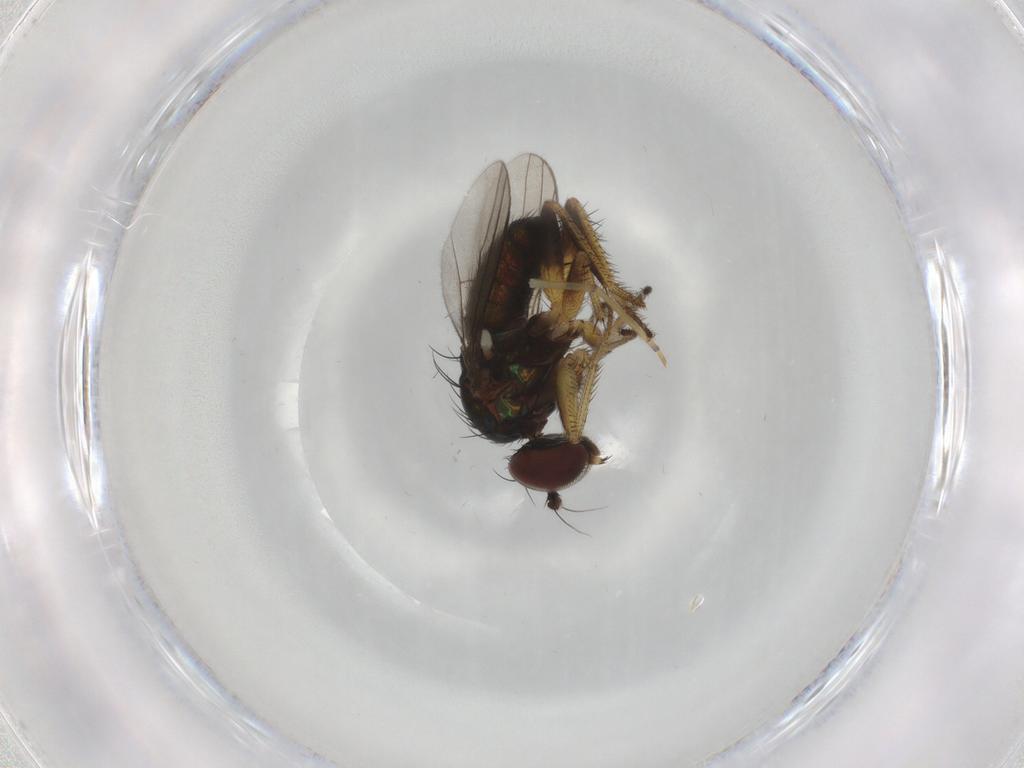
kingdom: Animalia
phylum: Arthropoda
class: Insecta
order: Diptera
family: Dolichopodidae
